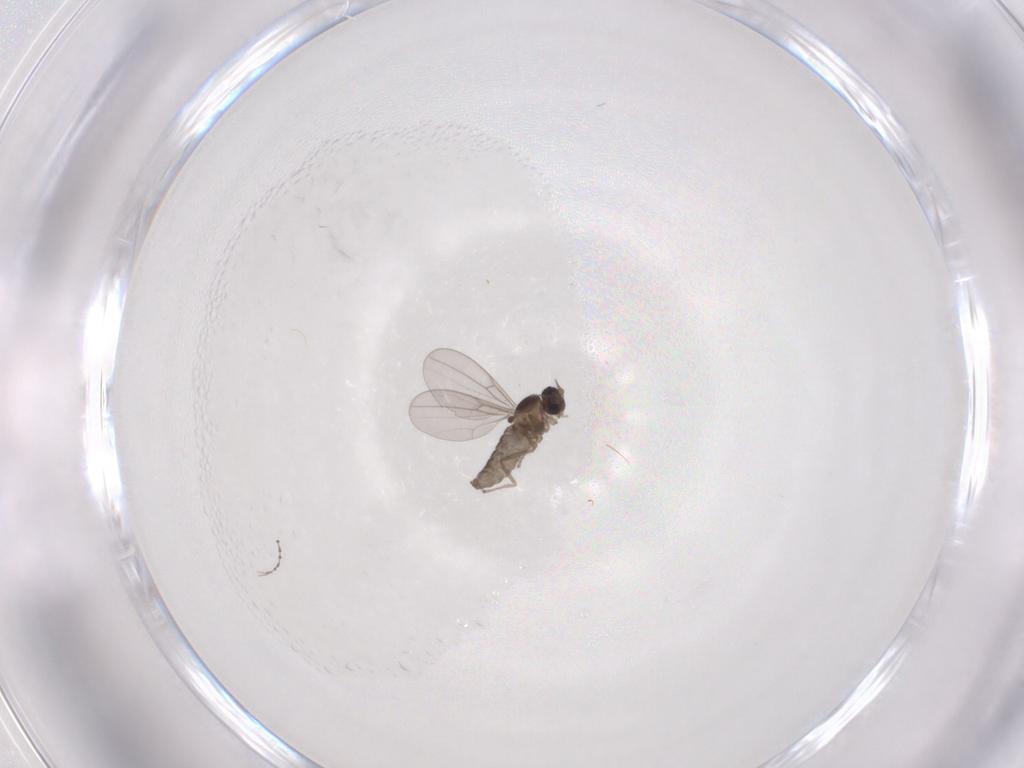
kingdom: Animalia
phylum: Arthropoda
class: Insecta
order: Diptera
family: Cecidomyiidae
